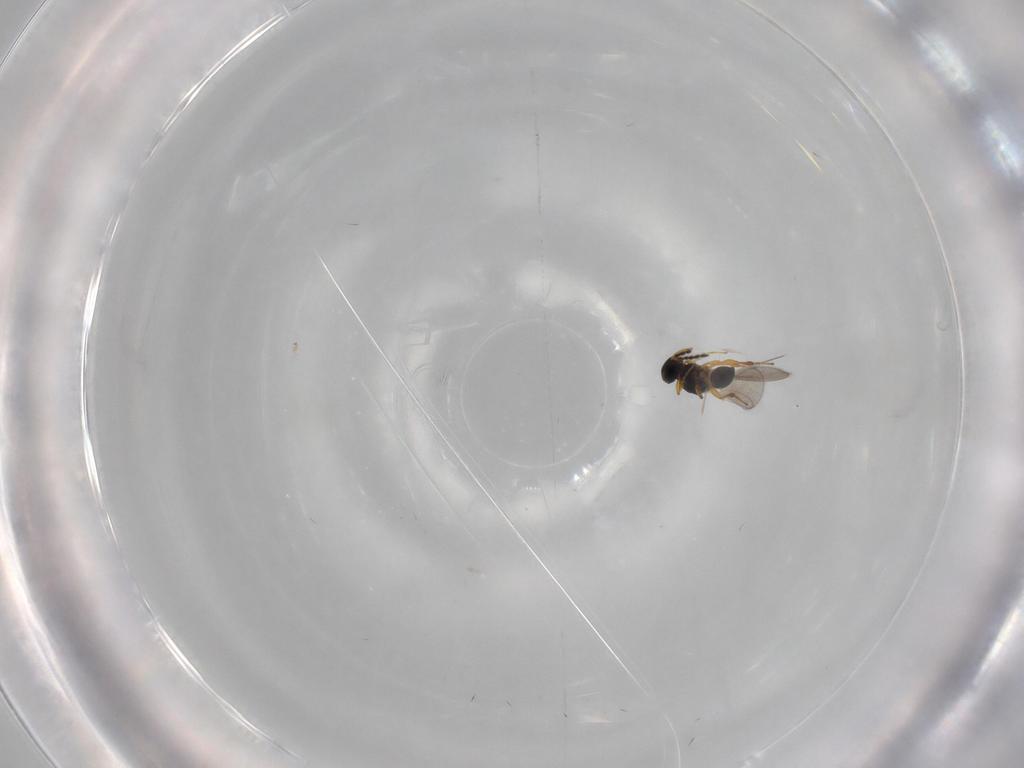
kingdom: Animalia
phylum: Arthropoda
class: Insecta
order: Hymenoptera
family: Platygastridae
